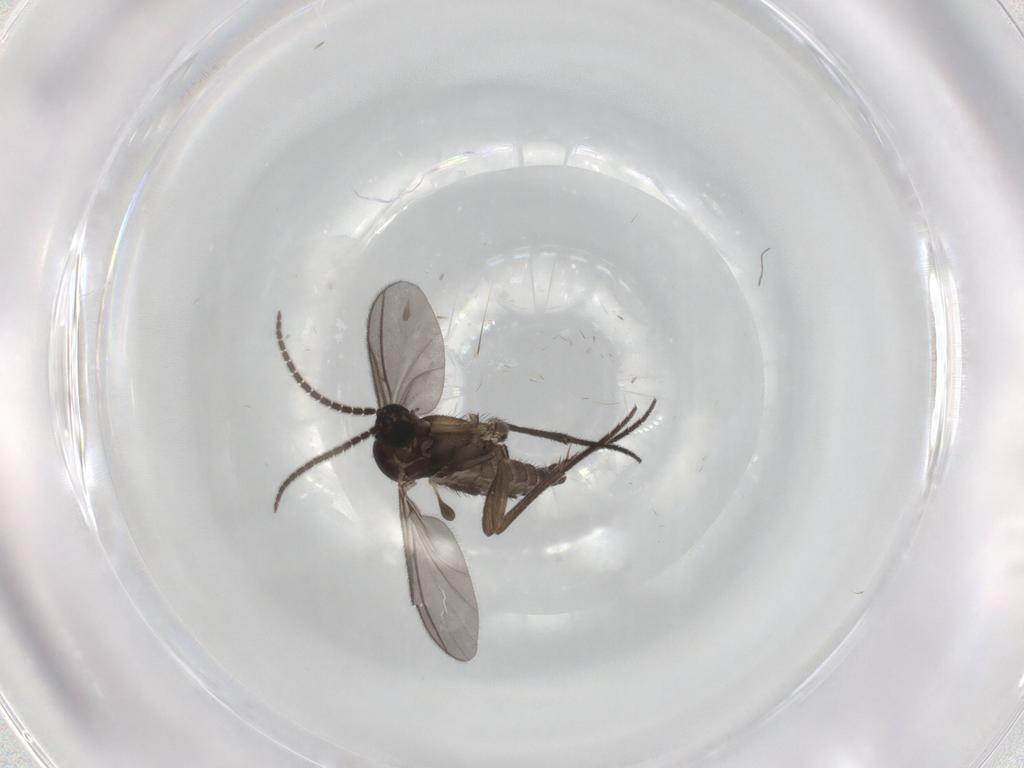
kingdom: Animalia
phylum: Arthropoda
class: Insecta
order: Diptera
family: Sciaridae
